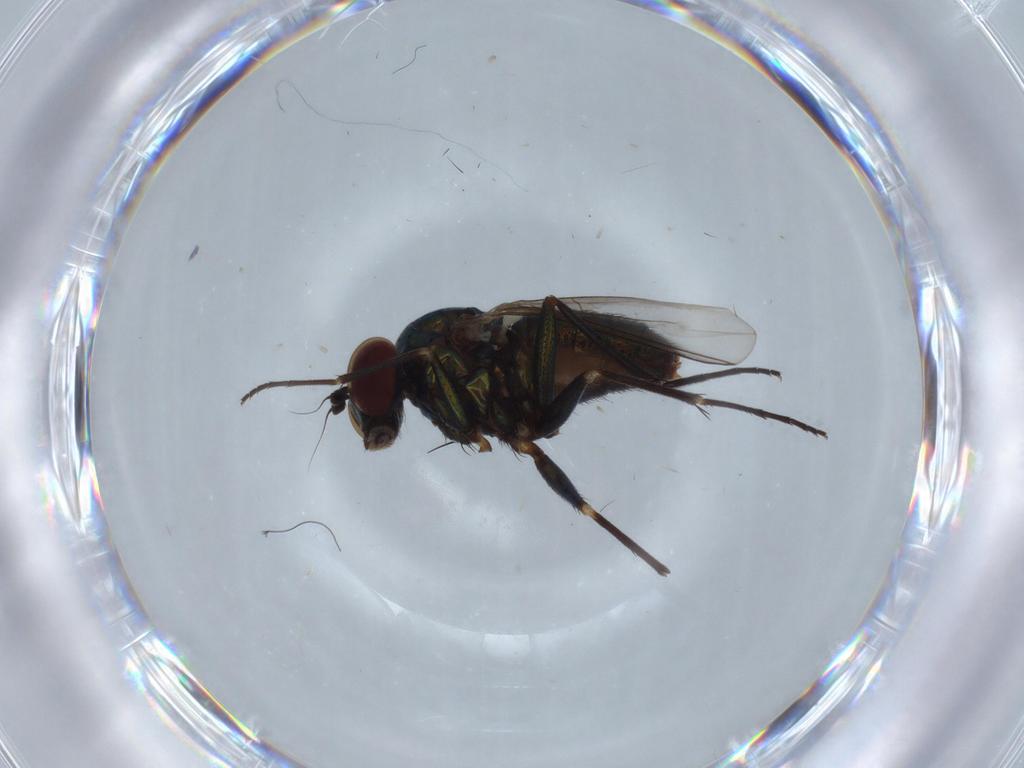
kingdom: Animalia
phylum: Arthropoda
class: Insecta
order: Diptera
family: Dolichopodidae
